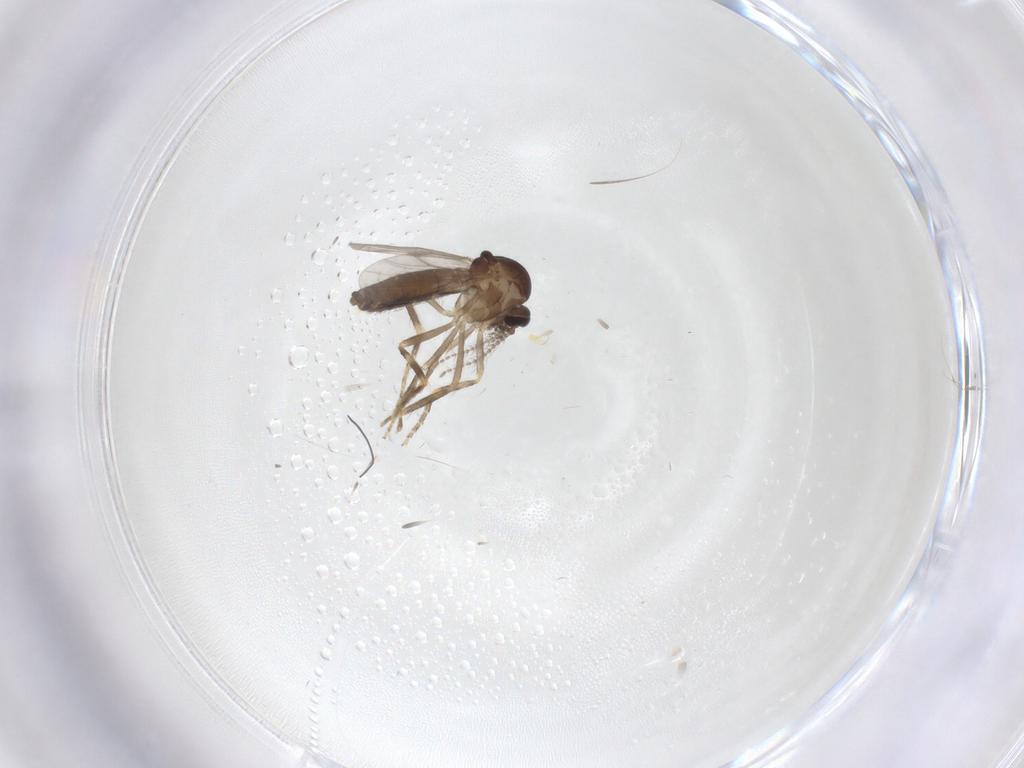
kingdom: Animalia
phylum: Arthropoda
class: Insecta
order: Diptera
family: Ceratopogonidae
